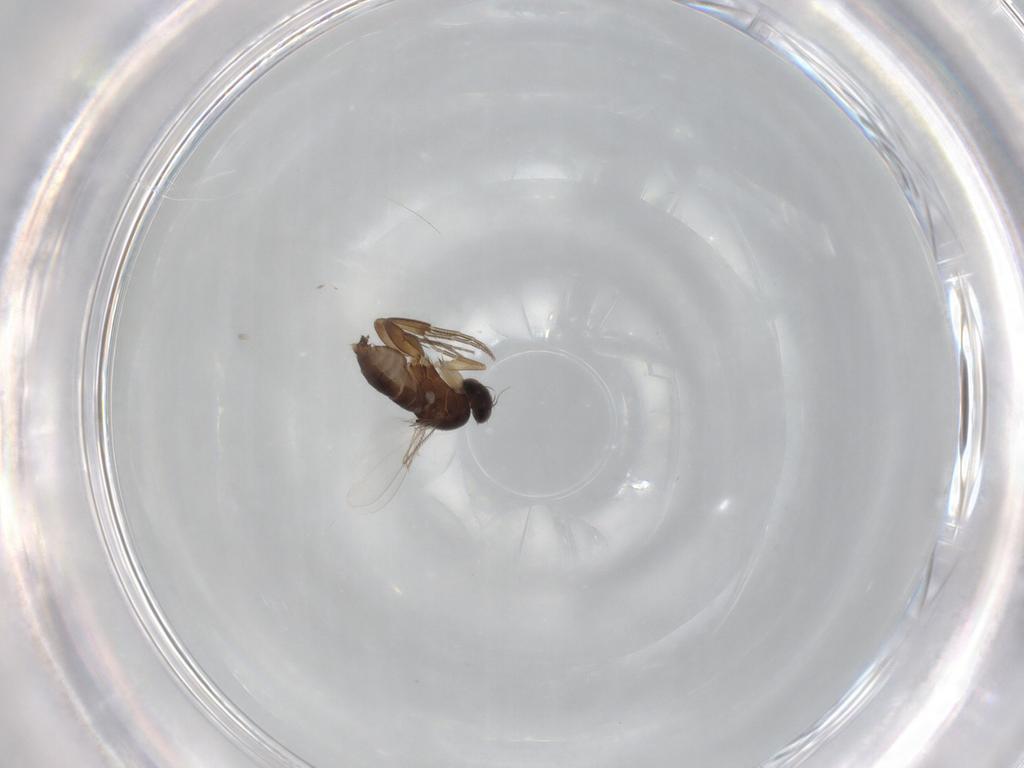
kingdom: Animalia
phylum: Arthropoda
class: Insecta
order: Diptera
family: Phoridae
